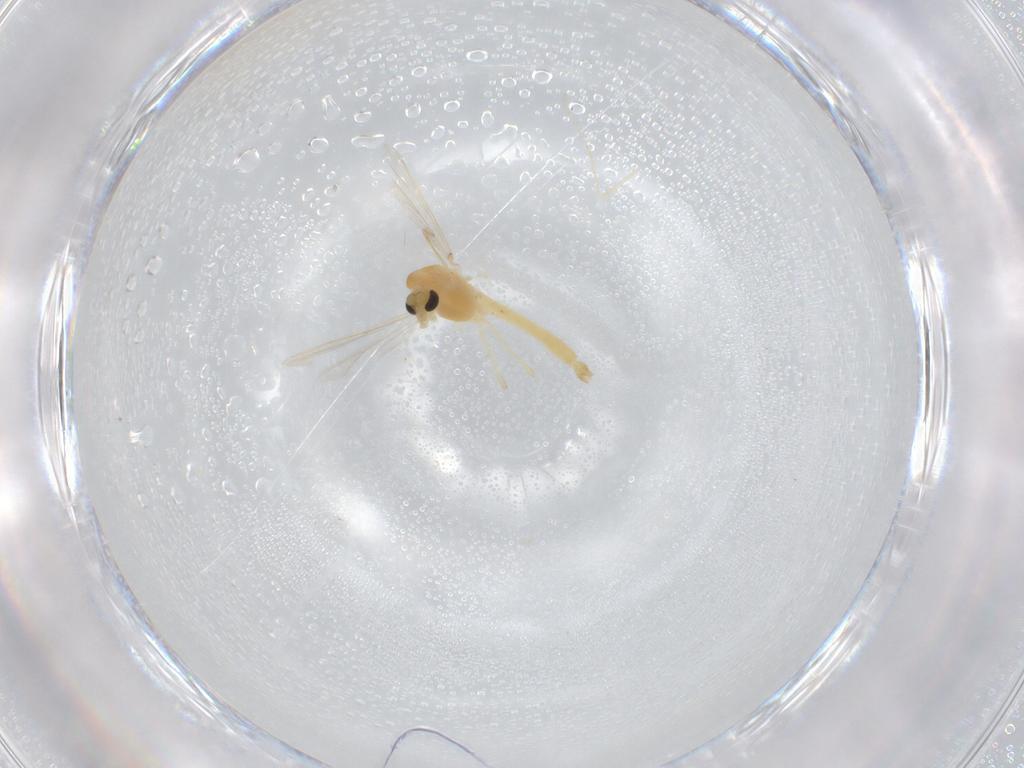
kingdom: Animalia
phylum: Arthropoda
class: Insecta
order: Diptera
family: Chironomidae
